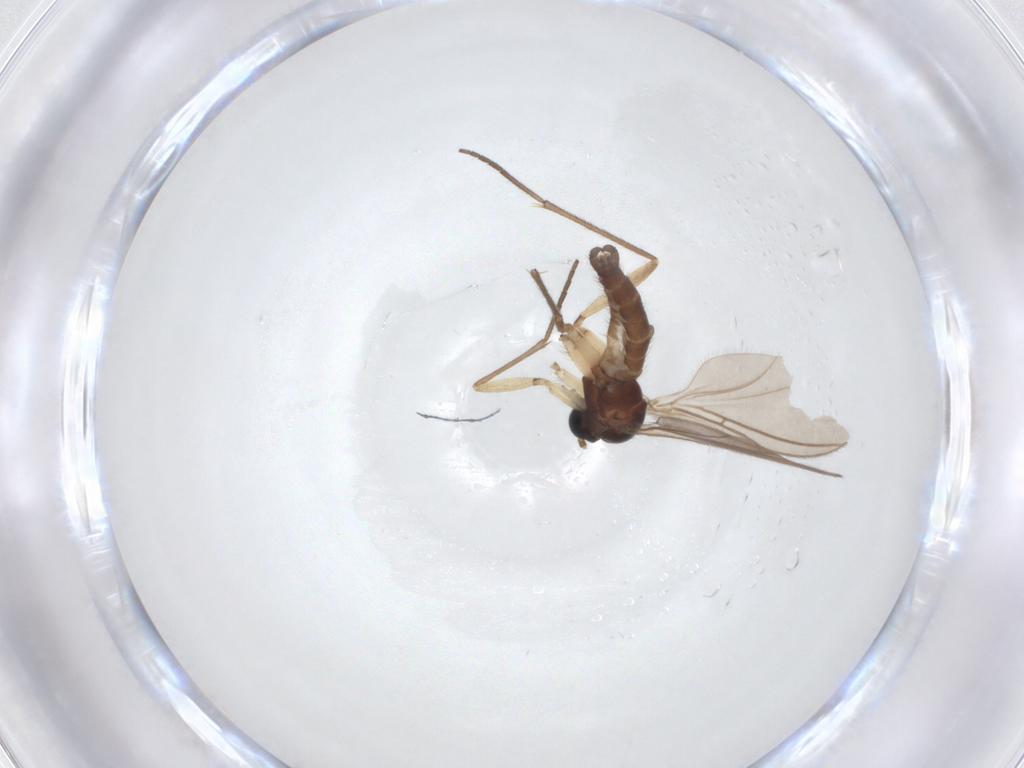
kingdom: Animalia
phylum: Arthropoda
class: Insecta
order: Diptera
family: Sciaridae
